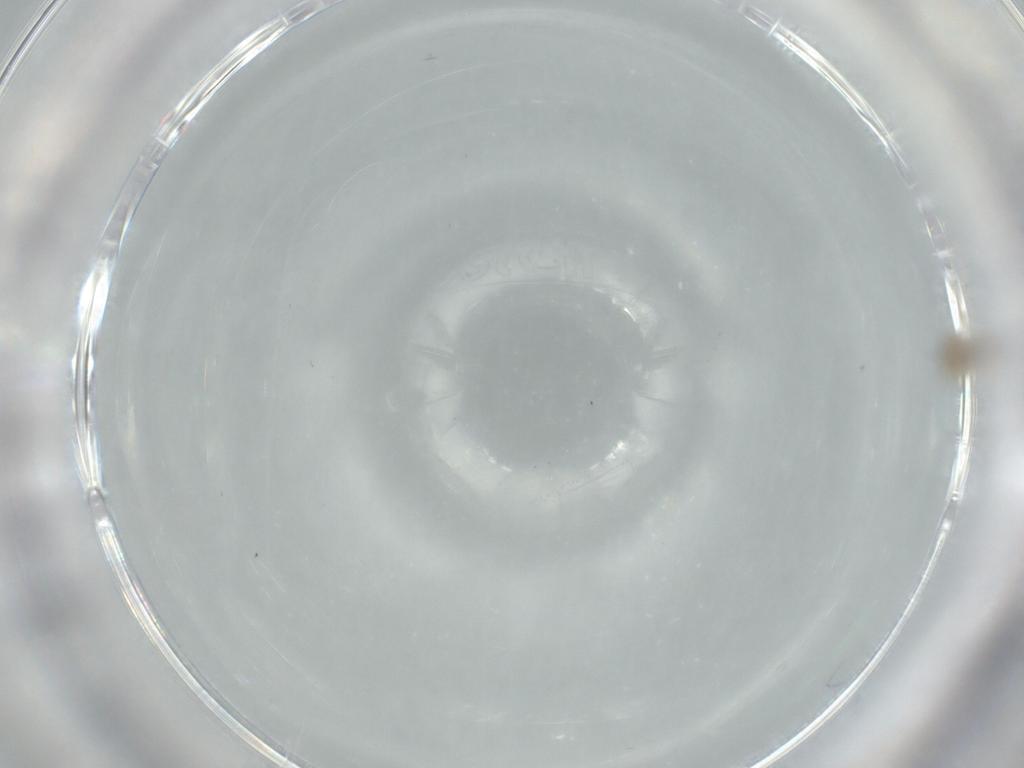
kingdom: Animalia
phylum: Arthropoda
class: Insecta
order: Diptera
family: Cecidomyiidae
